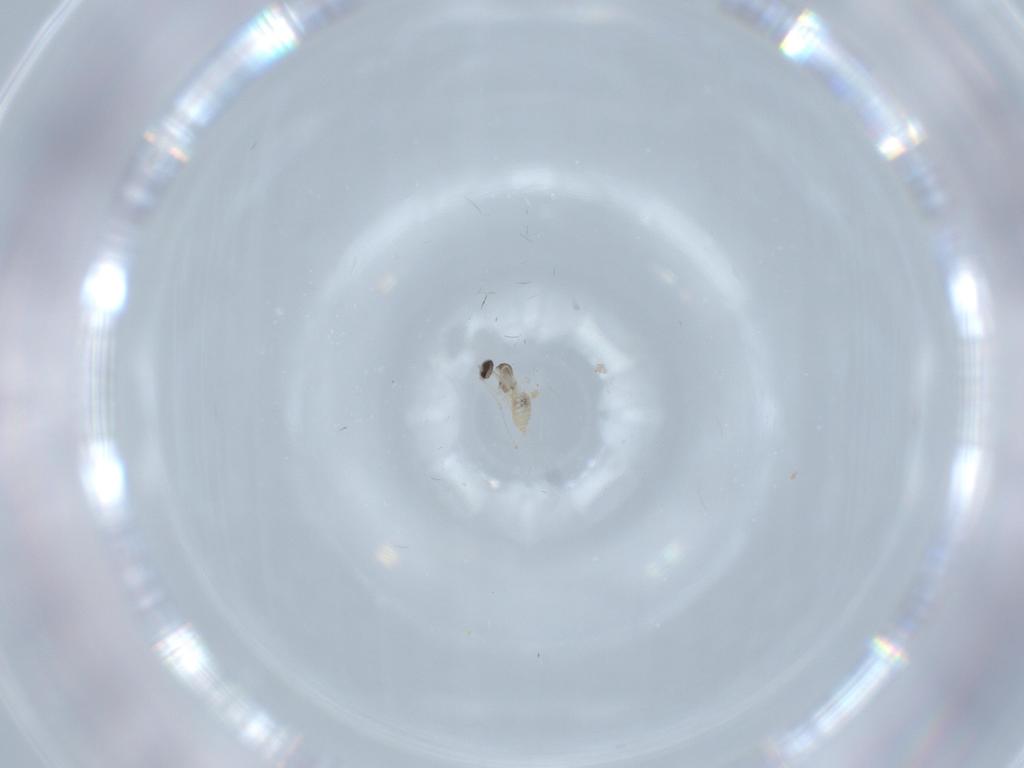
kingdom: Animalia
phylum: Arthropoda
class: Insecta
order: Diptera
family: Cecidomyiidae
